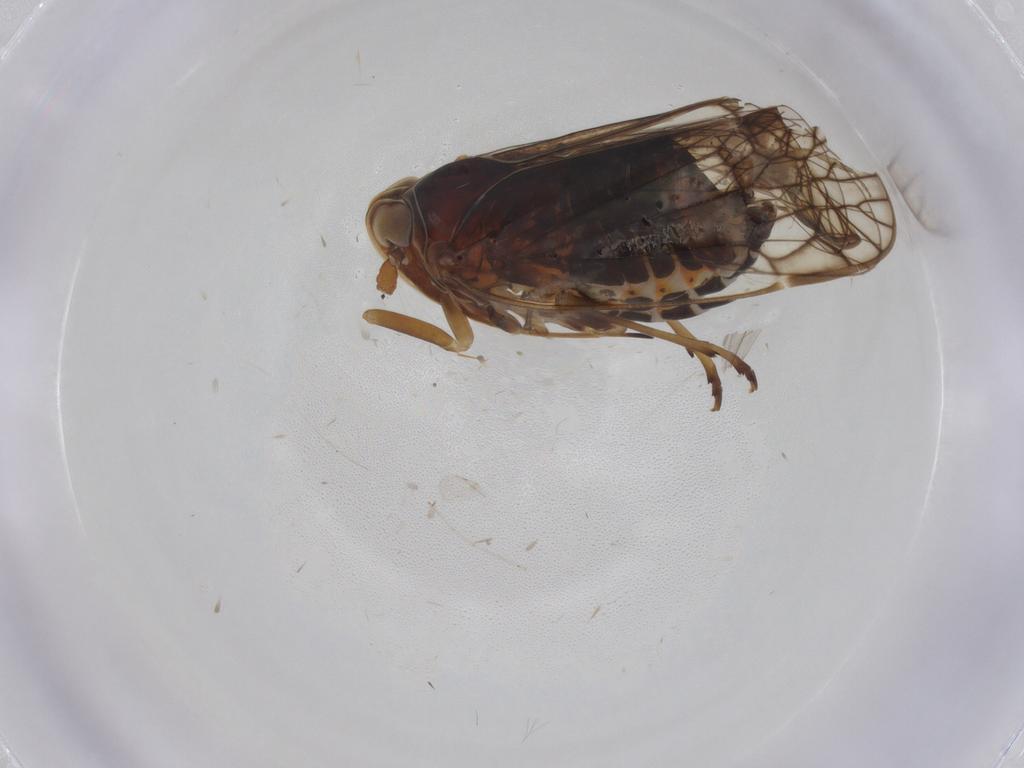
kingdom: Animalia
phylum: Arthropoda
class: Insecta
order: Hemiptera
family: Kinnaridae
